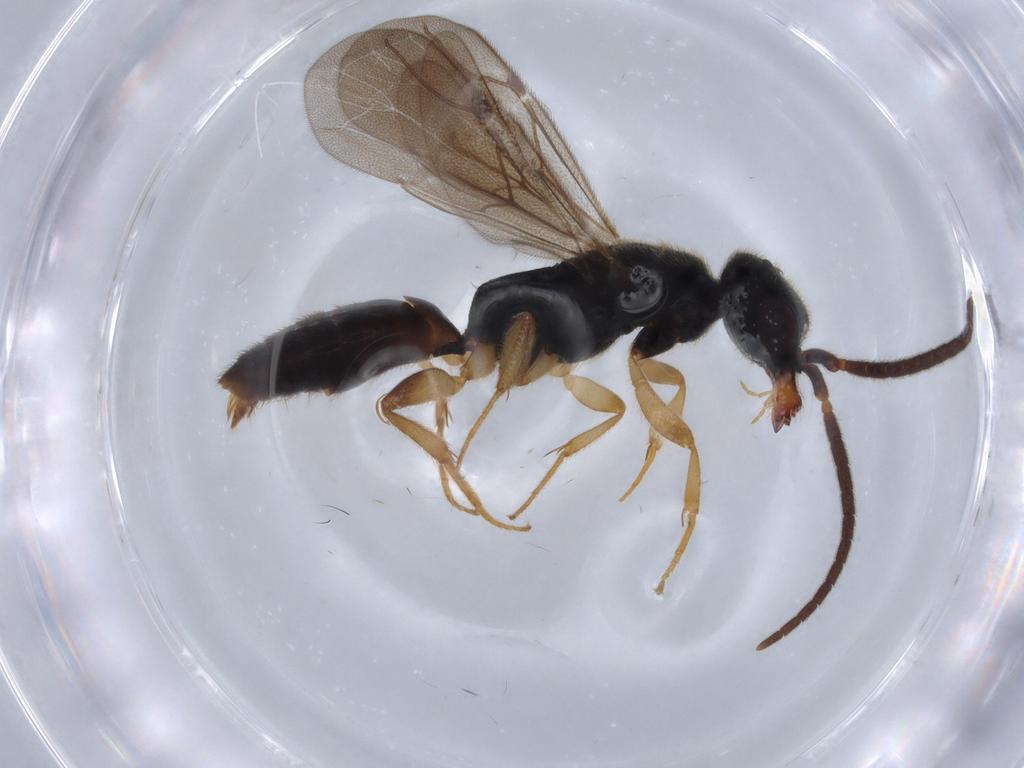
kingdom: Animalia
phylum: Arthropoda
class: Insecta
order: Hymenoptera
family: Bethylidae
